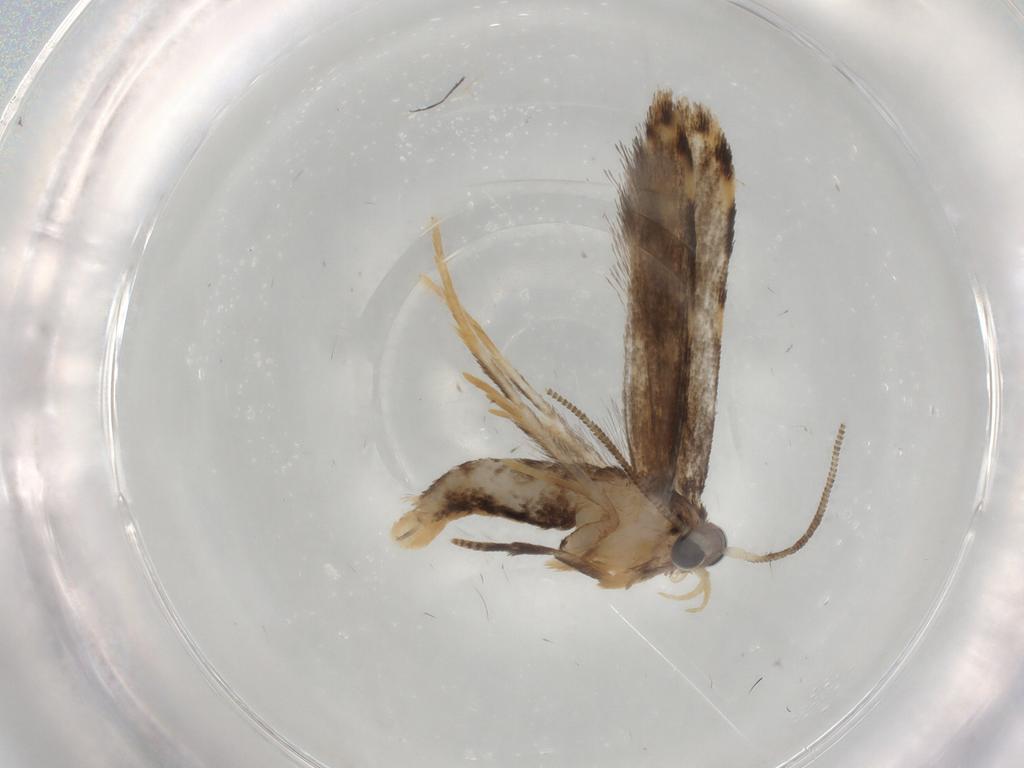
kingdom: Animalia
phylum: Arthropoda
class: Insecta
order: Lepidoptera
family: Tineidae
